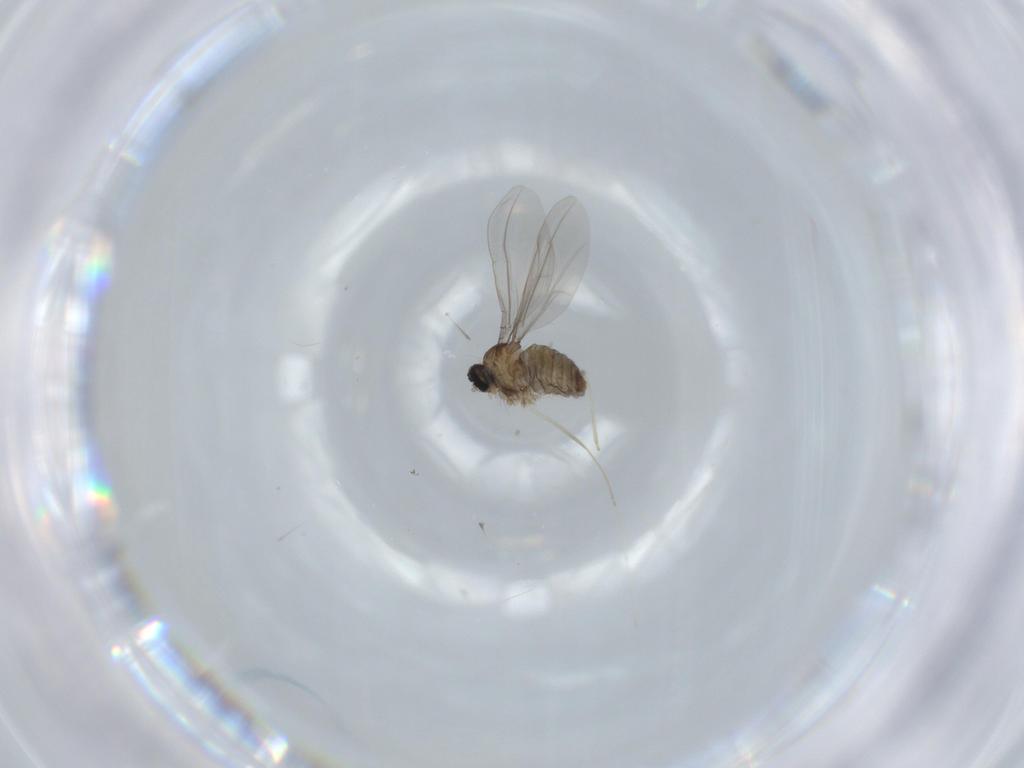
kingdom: Animalia
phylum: Arthropoda
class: Insecta
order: Diptera
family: Cecidomyiidae
